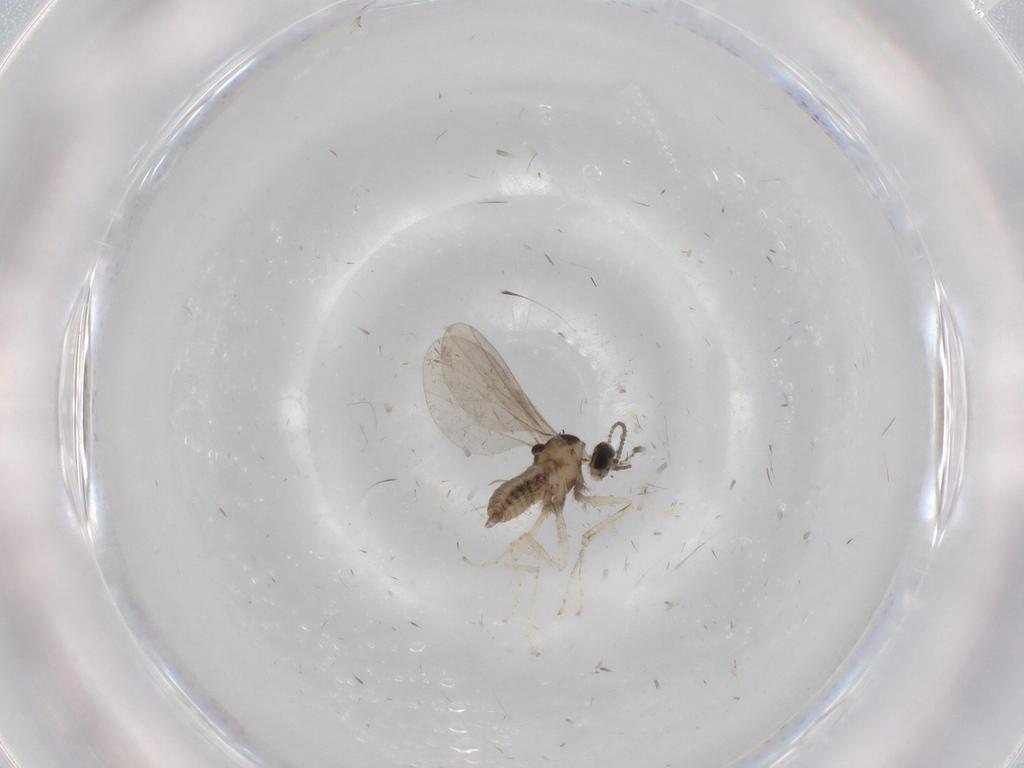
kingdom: Animalia
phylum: Arthropoda
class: Insecta
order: Diptera
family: Cecidomyiidae
